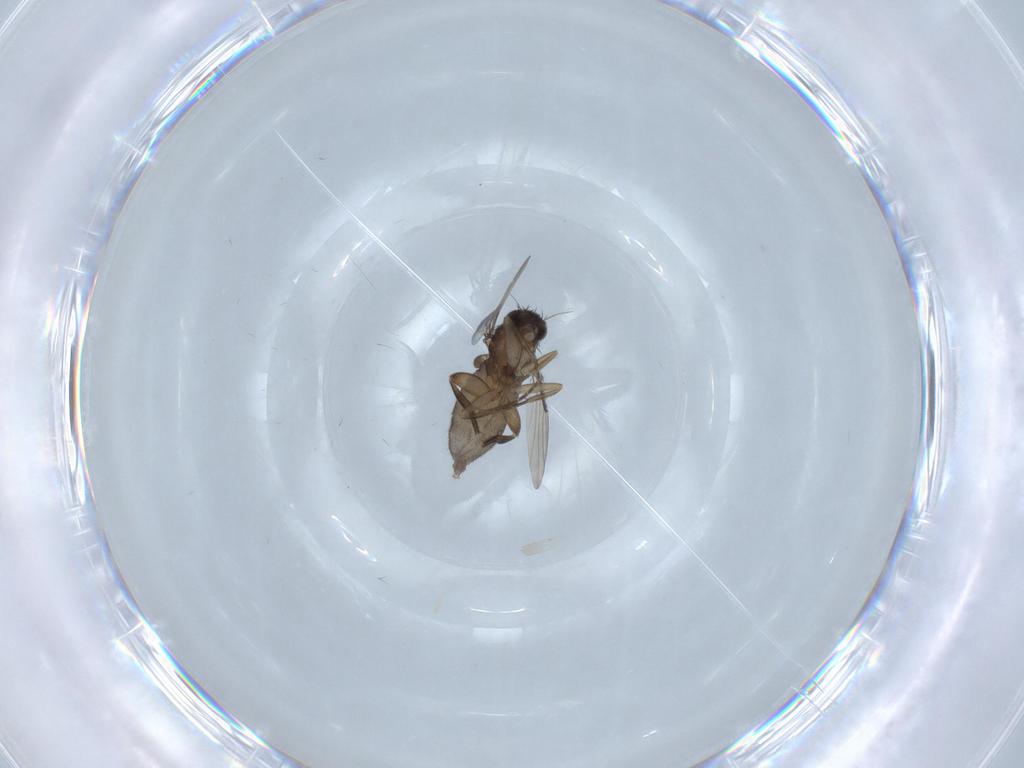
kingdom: Animalia
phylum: Arthropoda
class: Insecta
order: Diptera
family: Phoridae
